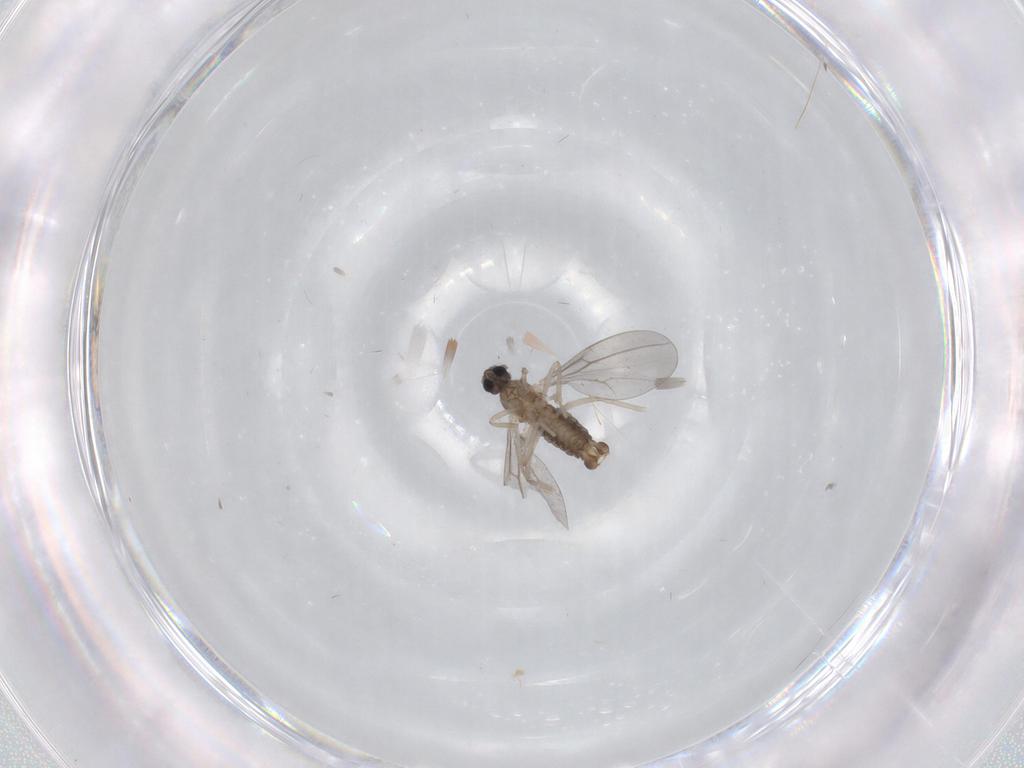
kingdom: Animalia
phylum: Arthropoda
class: Insecta
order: Diptera
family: Cecidomyiidae
